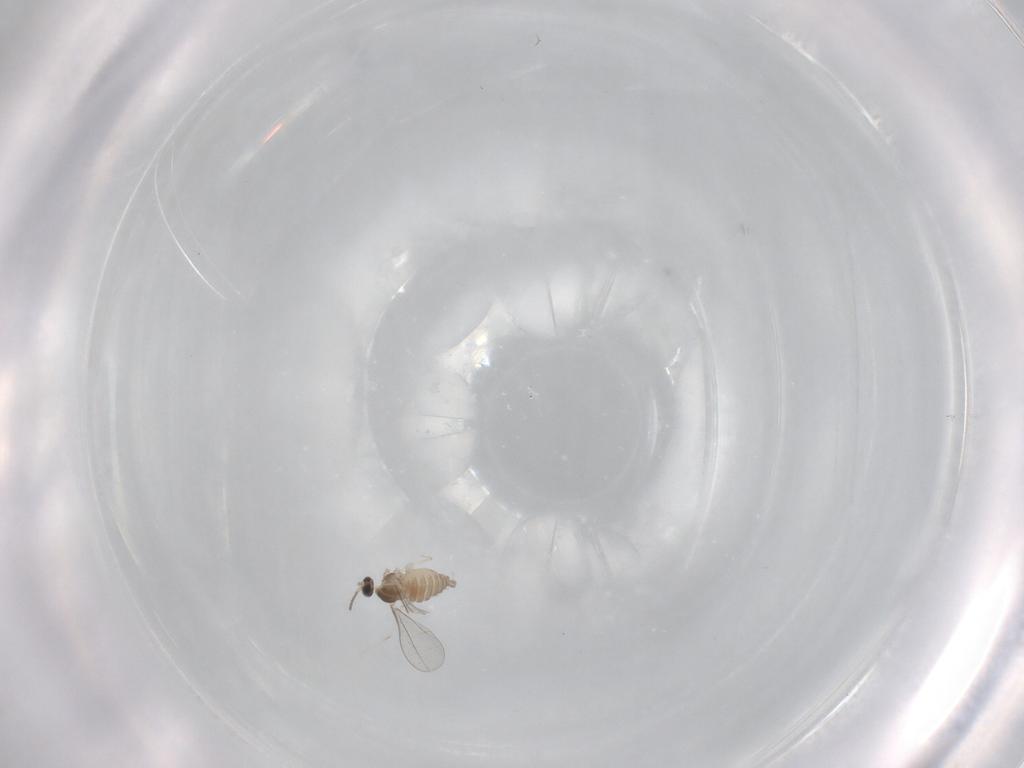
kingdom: Animalia
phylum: Arthropoda
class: Insecta
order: Diptera
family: Cecidomyiidae
